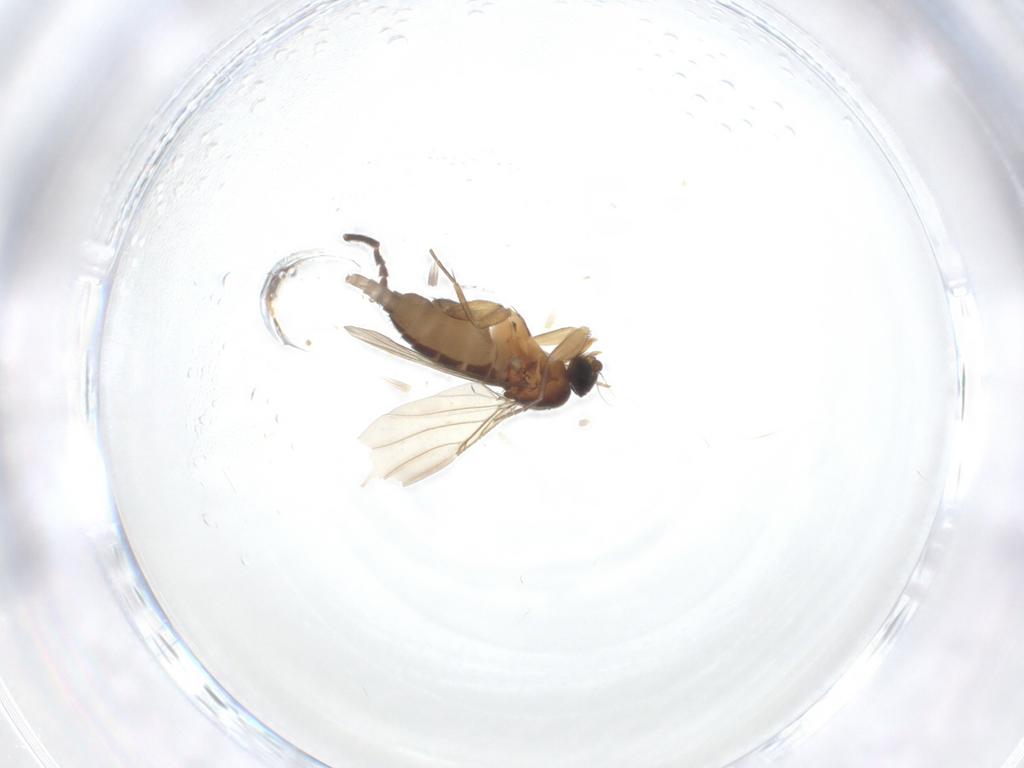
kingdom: Animalia
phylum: Arthropoda
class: Insecta
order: Diptera
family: Phoridae
